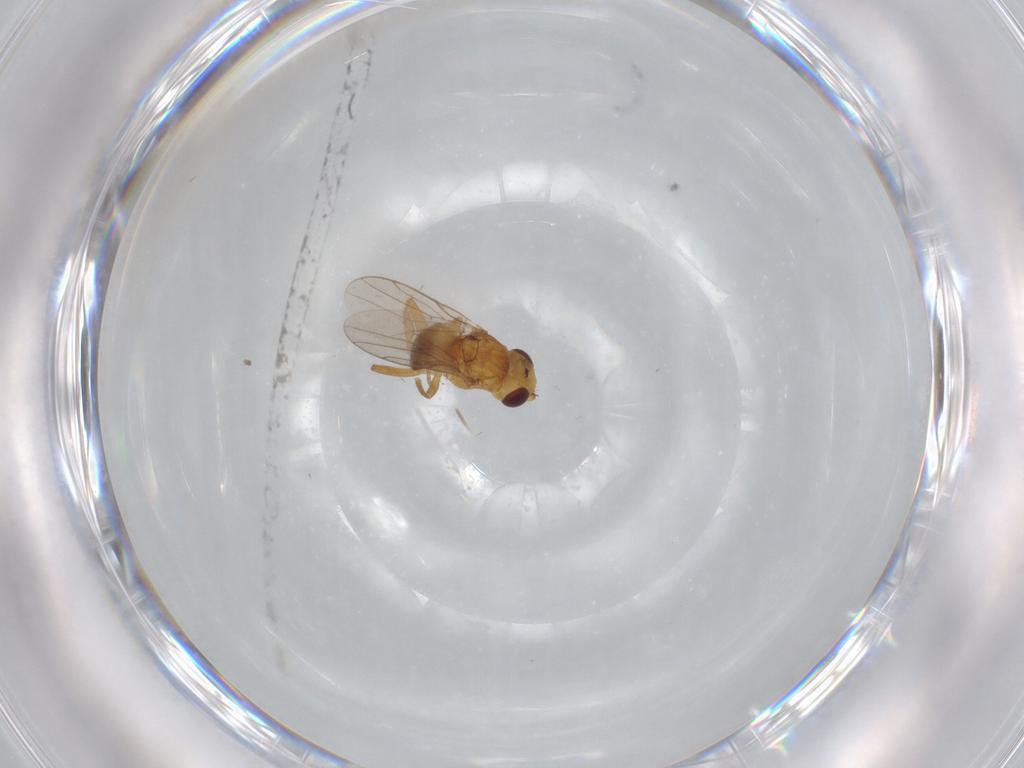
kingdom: Animalia
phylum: Arthropoda
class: Insecta
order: Diptera
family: Chloropidae
